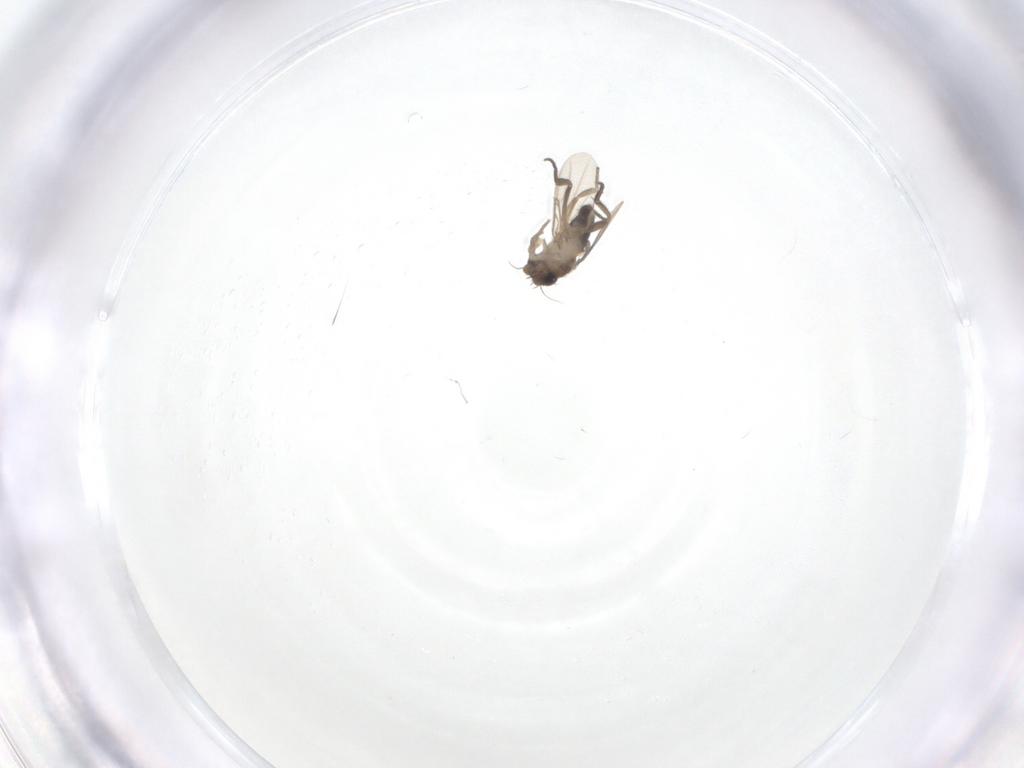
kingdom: Animalia
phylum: Arthropoda
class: Insecta
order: Diptera
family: Phoridae
